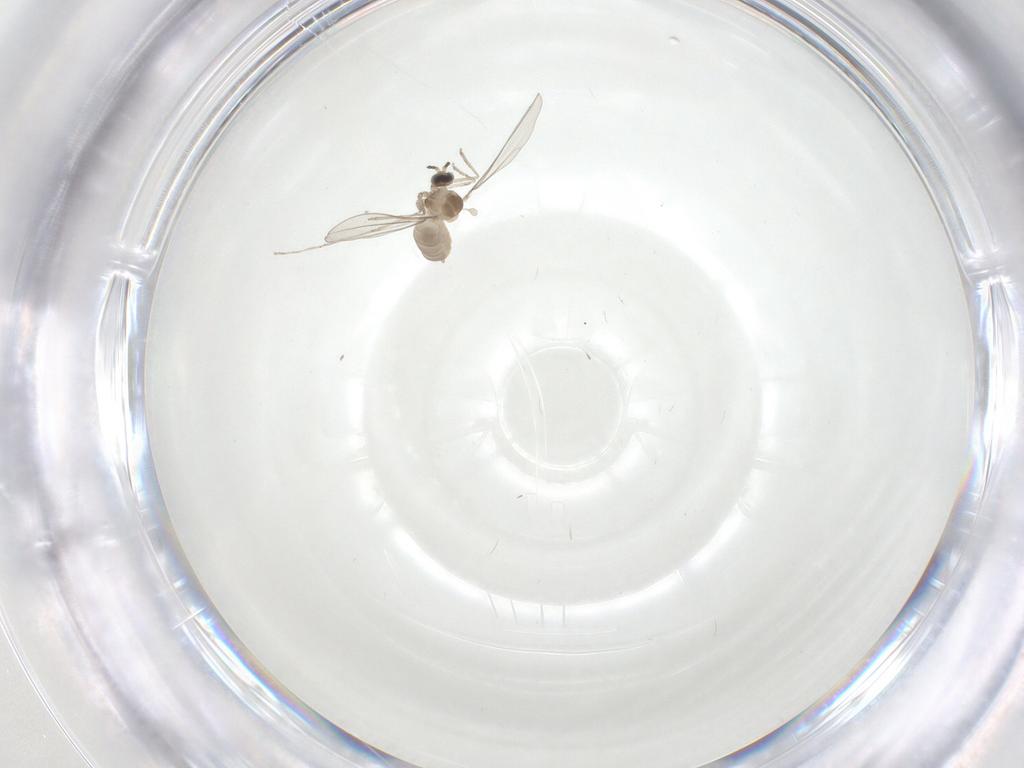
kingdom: Animalia
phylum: Arthropoda
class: Insecta
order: Diptera
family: Cecidomyiidae
